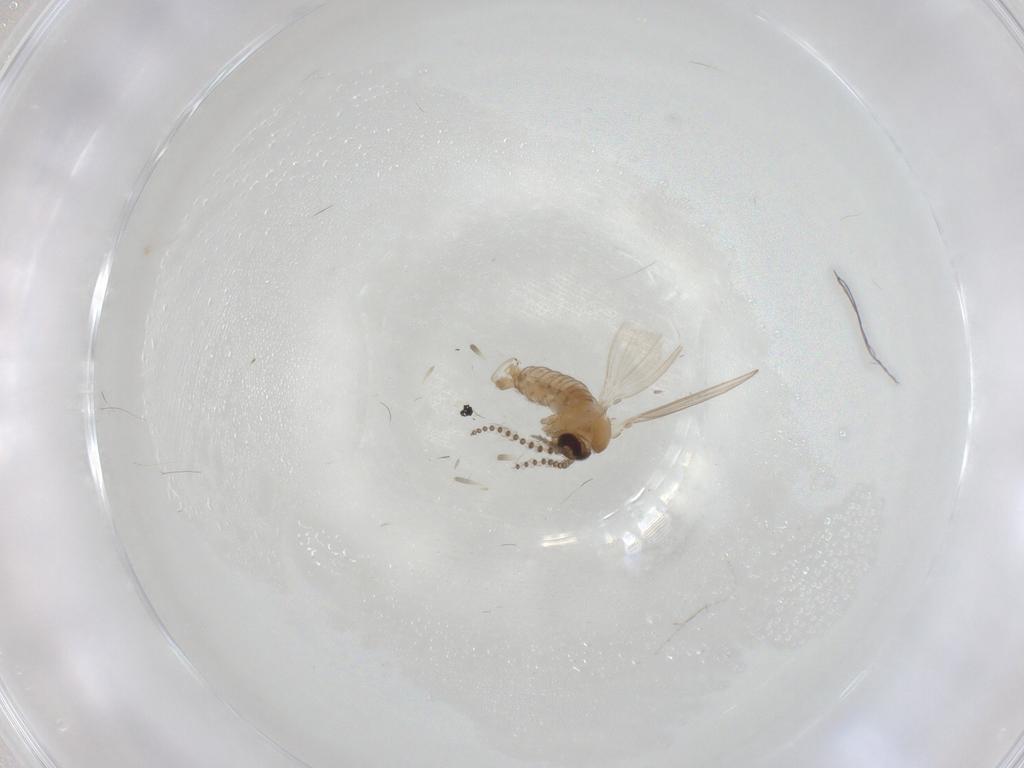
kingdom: Animalia
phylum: Arthropoda
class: Insecta
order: Diptera
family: Psychodidae
